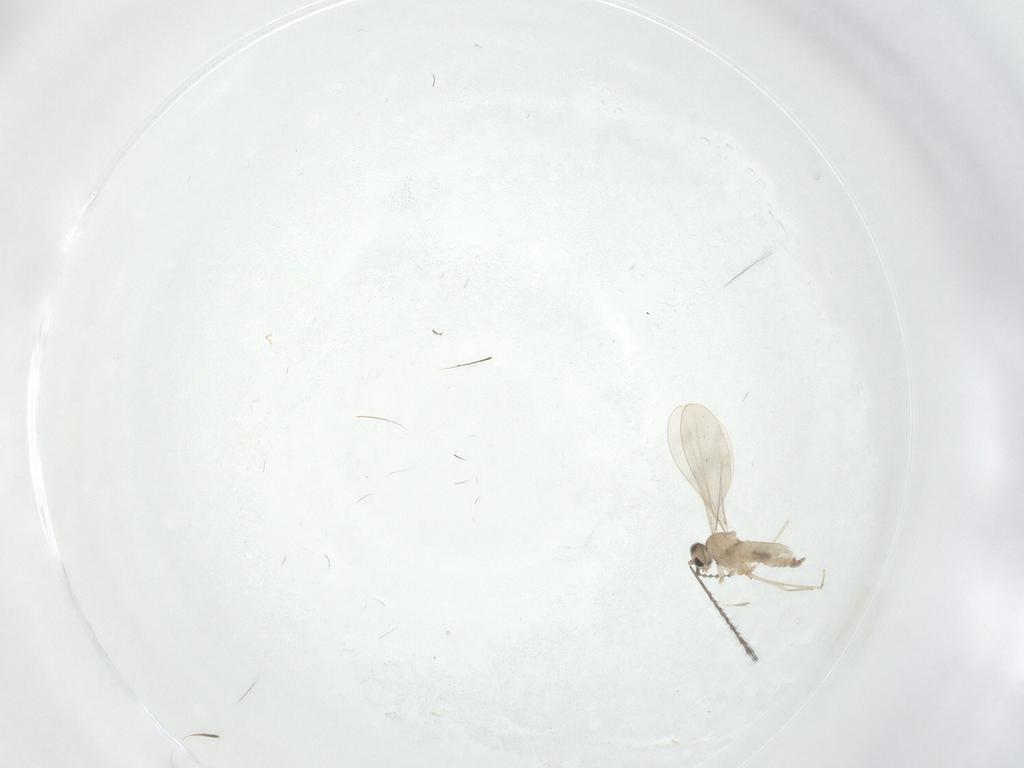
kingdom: Animalia
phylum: Arthropoda
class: Insecta
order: Diptera
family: Cecidomyiidae
